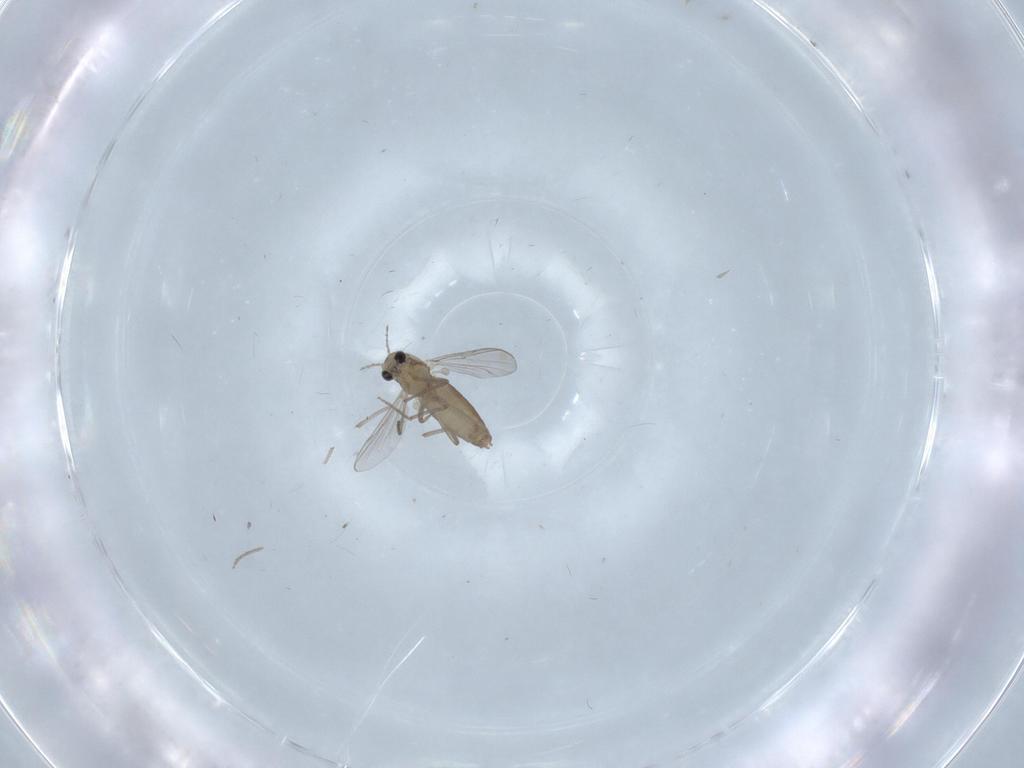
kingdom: Animalia
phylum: Arthropoda
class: Insecta
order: Diptera
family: Chironomidae
